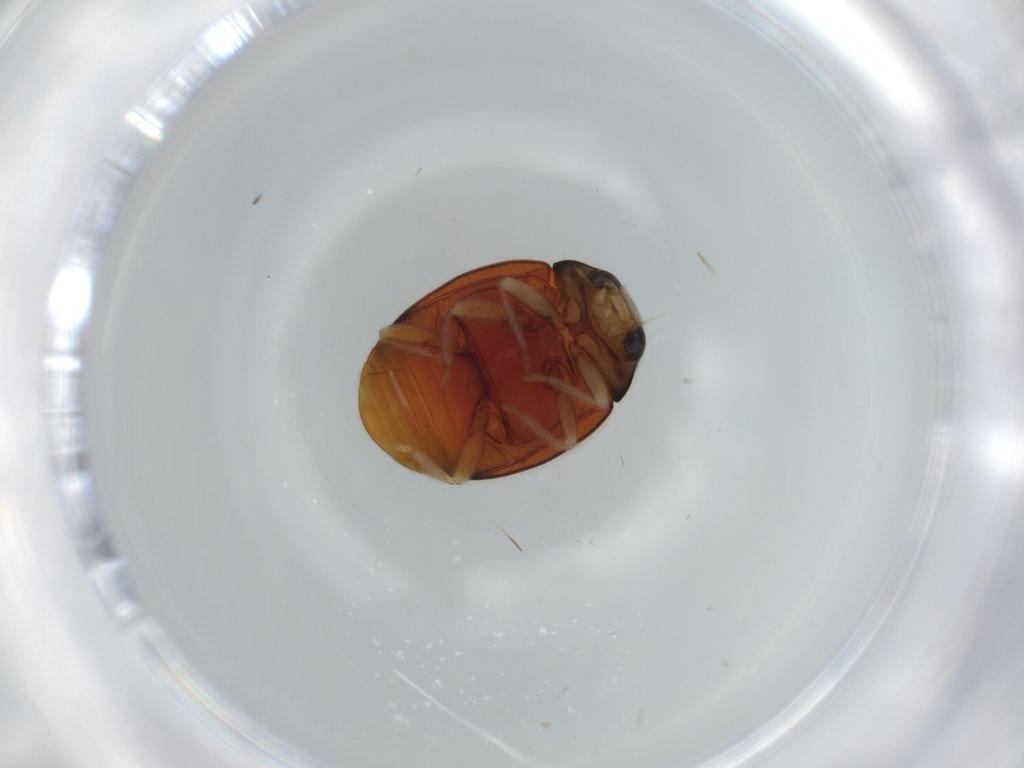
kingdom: Animalia
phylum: Arthropoda
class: Insecta
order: Coleoptera
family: Coccinellidae
